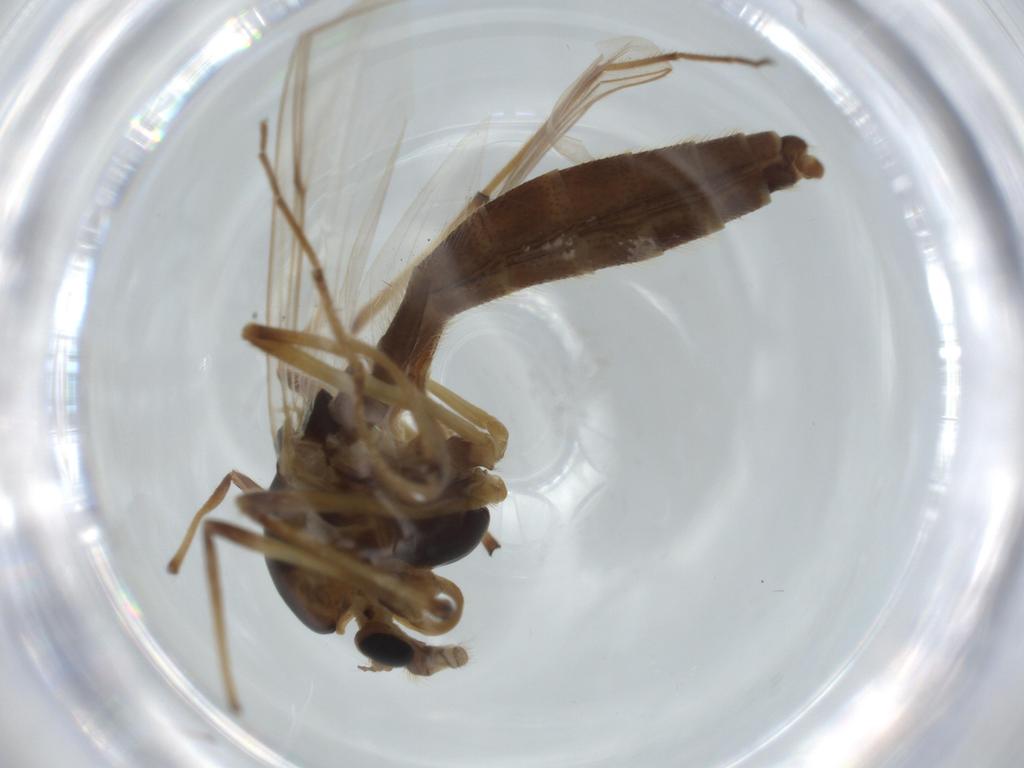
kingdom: Animalia
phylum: Arthropoda
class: Insecta
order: Diptera
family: Chironomidae
